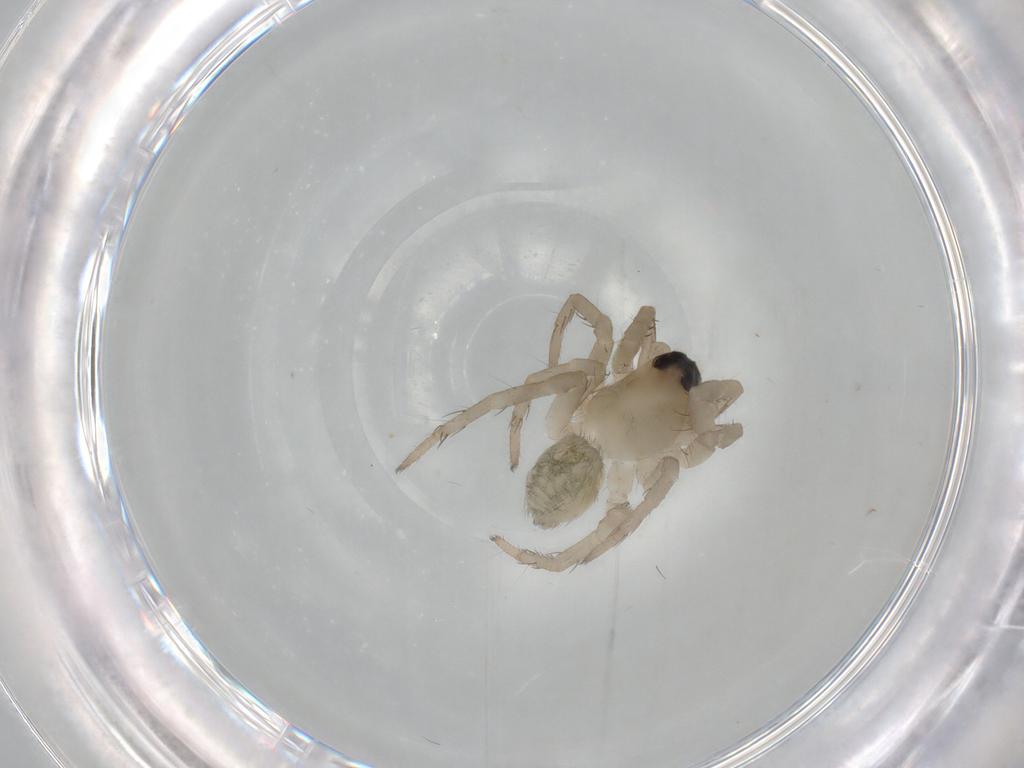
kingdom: Animalia
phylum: Arthropoda
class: Arachnida
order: Araneae
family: Lycosidae
